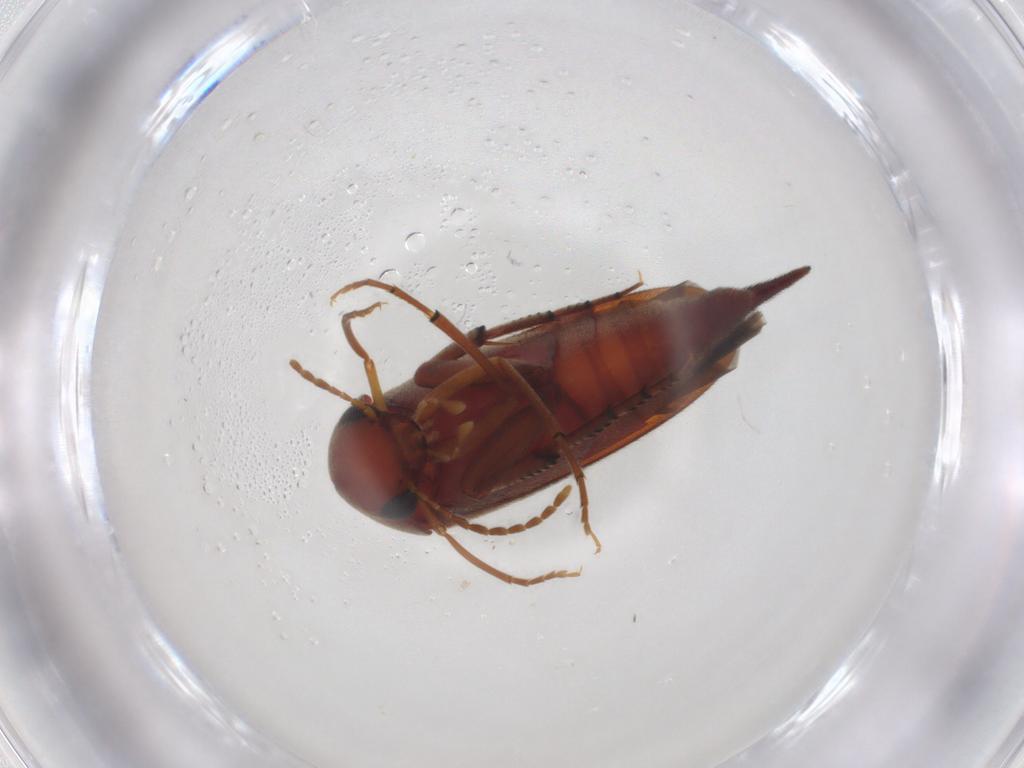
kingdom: Animalia
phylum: Arthropoda
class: Insecta
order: Coleoptera
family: Mordellidae
